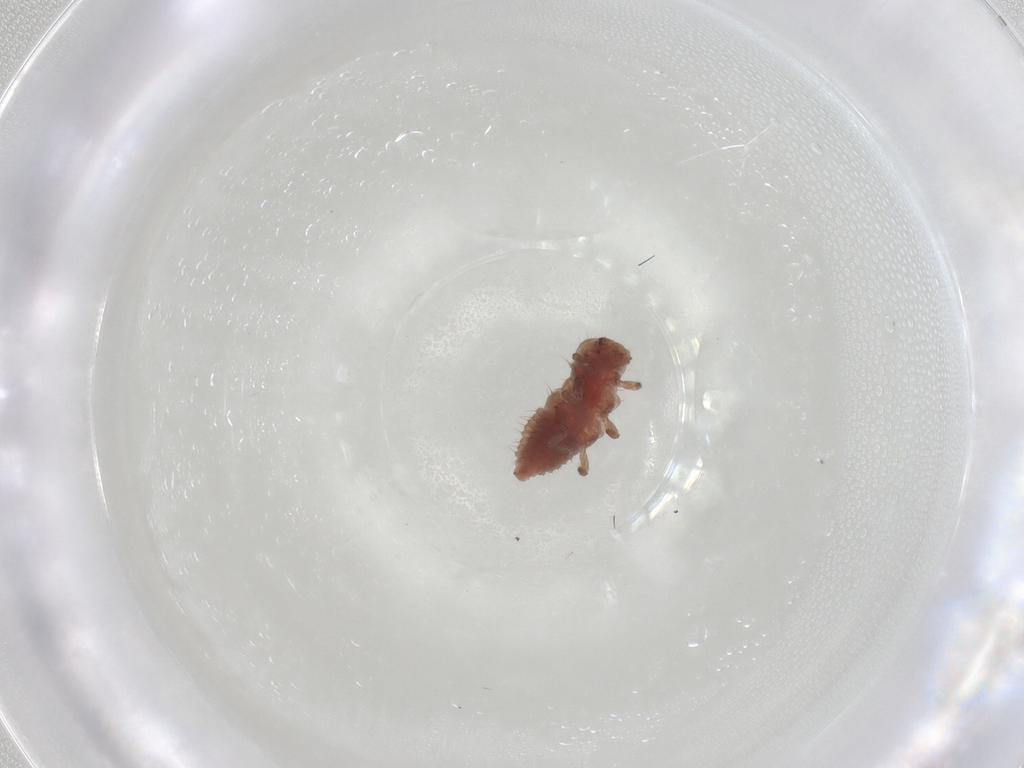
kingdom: Animalia
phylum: Arthropoda
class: Insecta
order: Coleoptera
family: Coccinellidae
